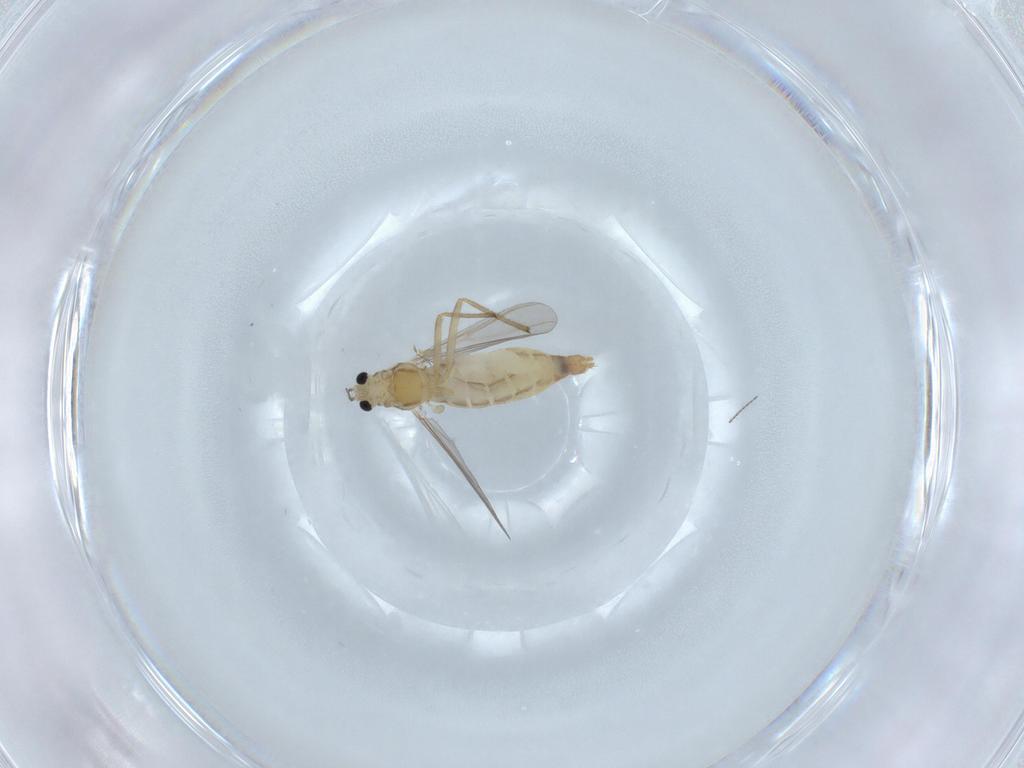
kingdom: Animalia
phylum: Arthropoda
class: Insecta
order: Diptera
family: Chironomidae
